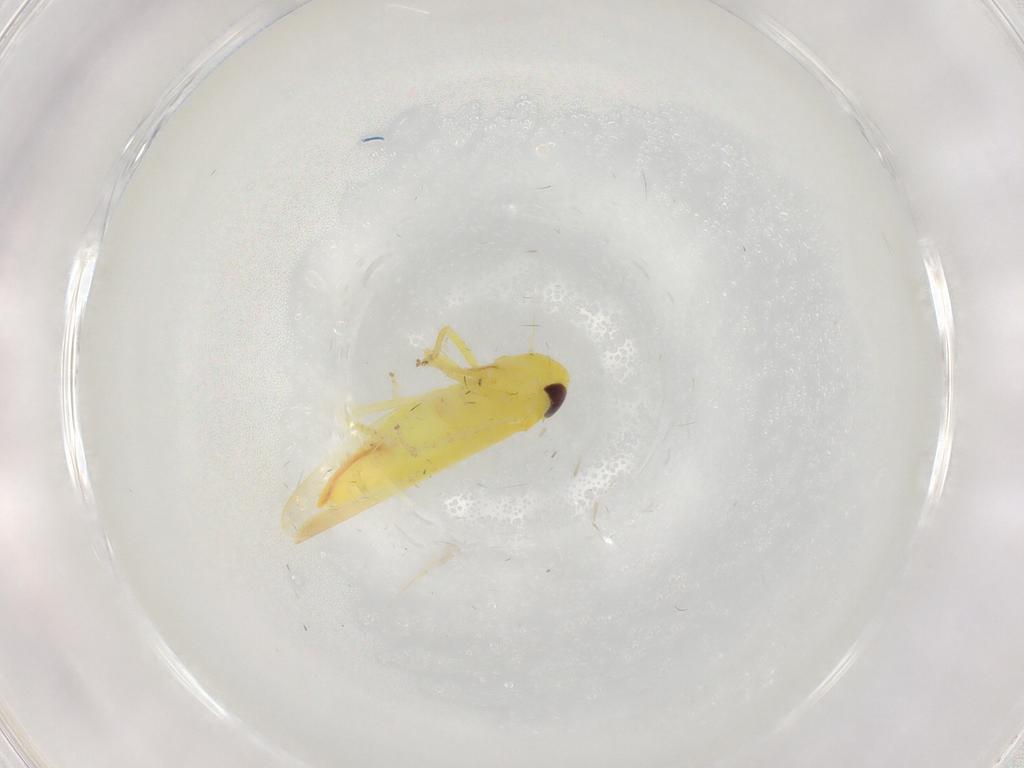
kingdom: Animalia
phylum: Arthropoda
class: Insecta
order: Hemiptera
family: Cicadellidae
